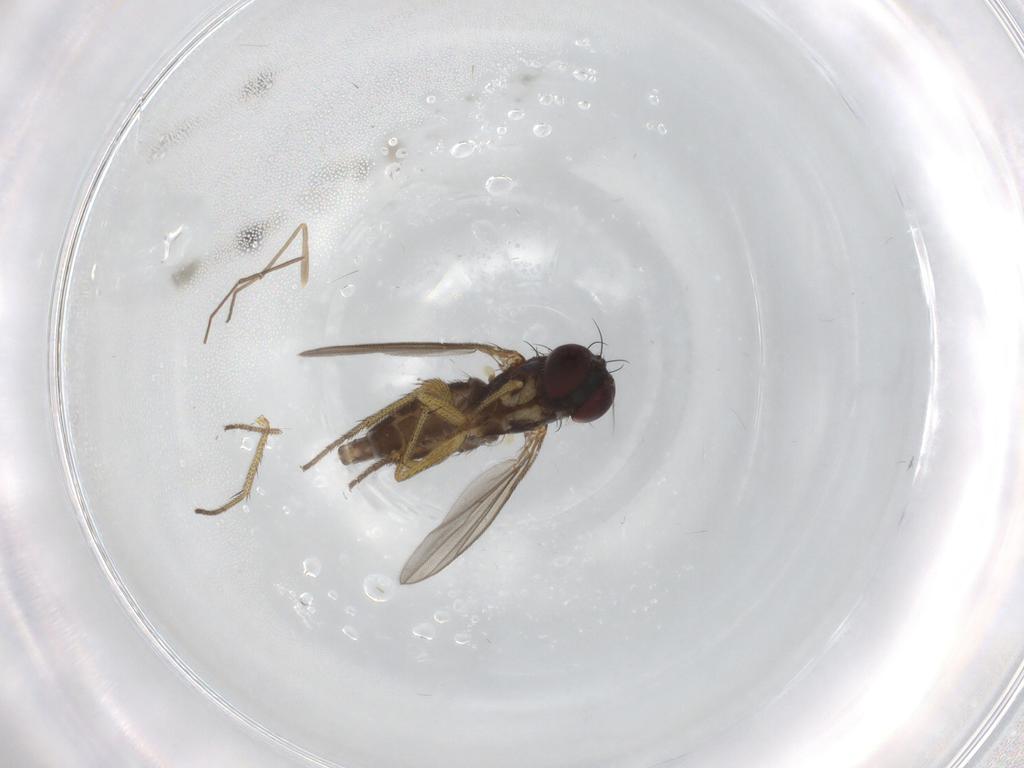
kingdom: Animalia
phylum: Arthropoda
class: Insecta
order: Diptera
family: Chironomidae
